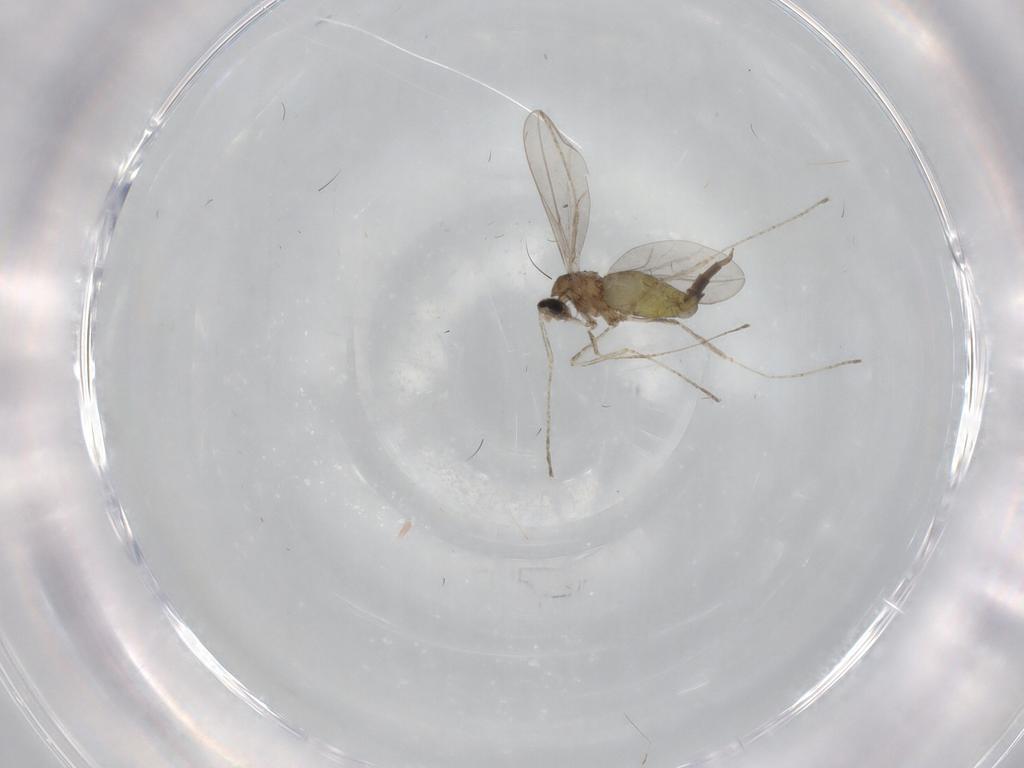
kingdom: Animalia
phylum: Arthropoda
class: Insecta
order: Diptera
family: Cecidomyiidae
